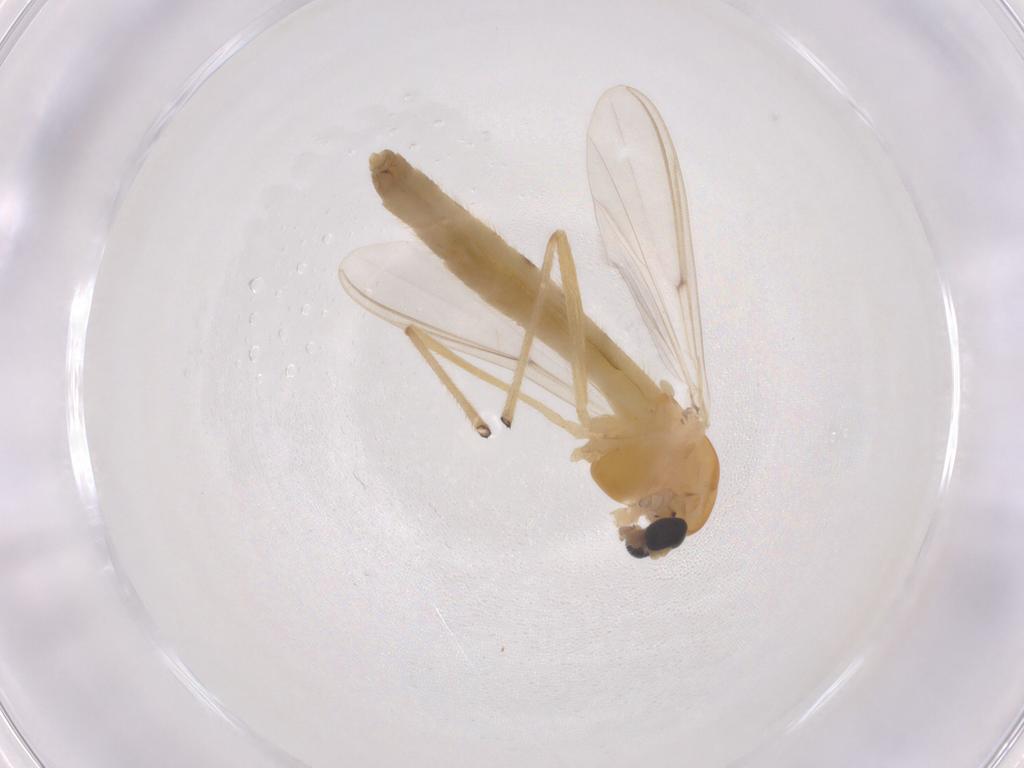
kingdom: Animalia
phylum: Arthropoda
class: Insecta
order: Diptera
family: Chironomidae
